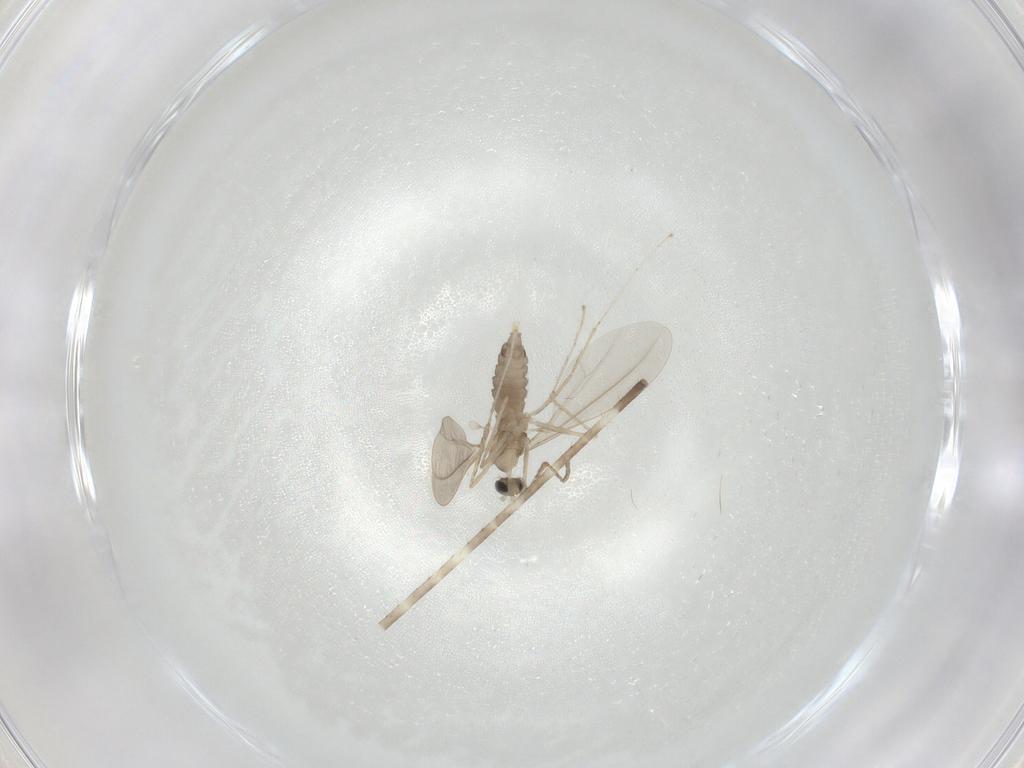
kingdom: Animalia
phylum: Arthropoda
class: Insecta
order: Diptera
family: Cecidomyiidae
